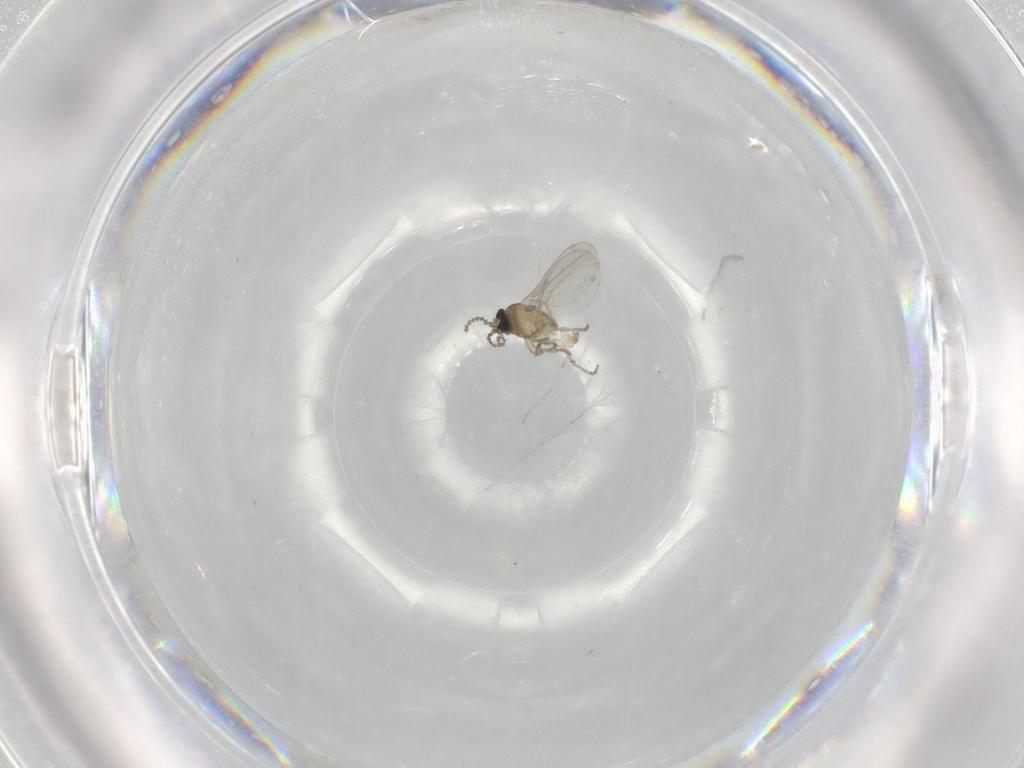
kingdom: Animalia
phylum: Arthropoda
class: Insecta
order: Diptera
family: Cecidomyiidae
